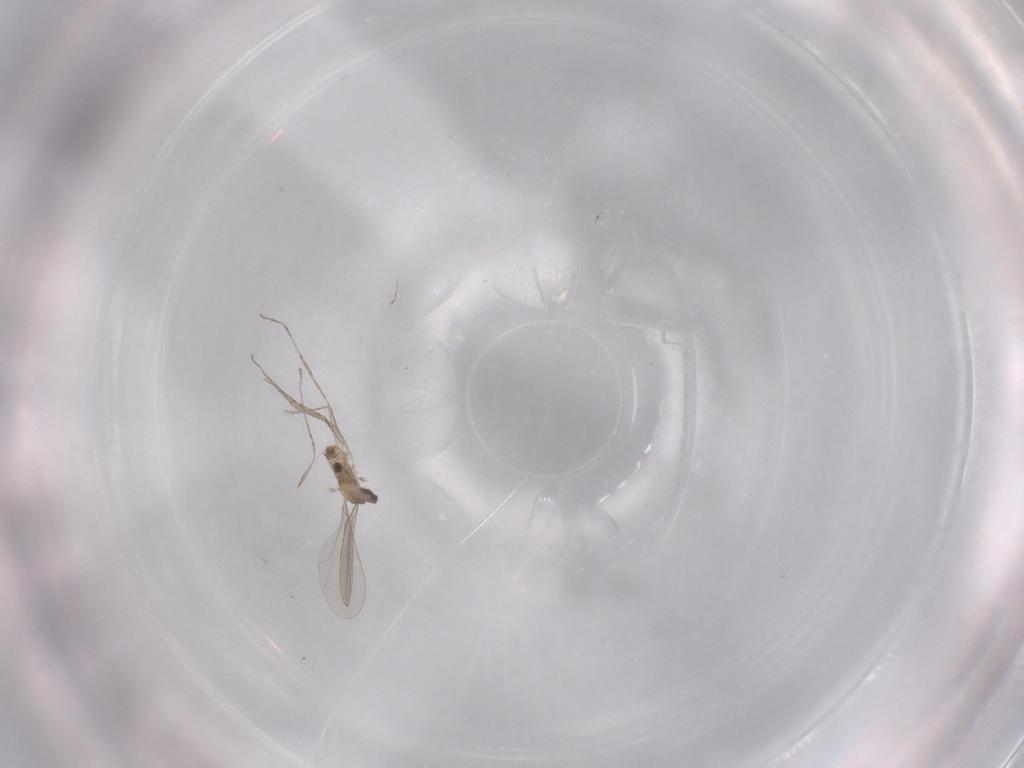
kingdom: Animalia
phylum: Arthropoda
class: Insecta
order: Diptera
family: Cecidomyiidae
